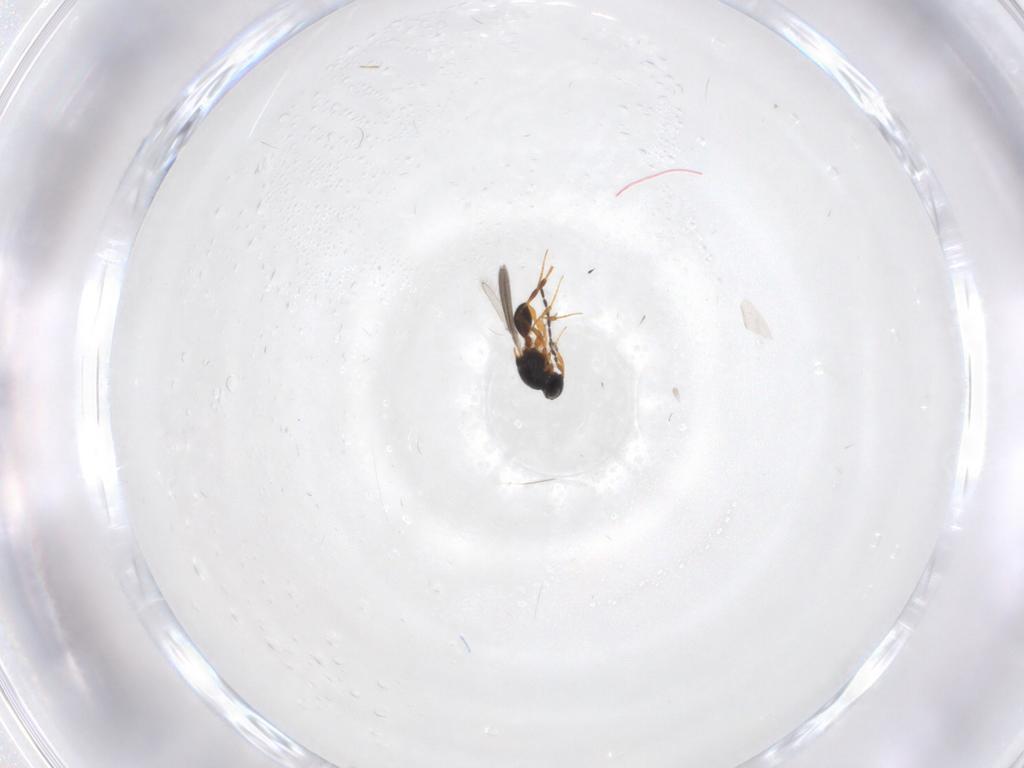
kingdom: Animalia
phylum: Arthropoda
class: Insecta
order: Hymenoptera
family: Platygastridae
